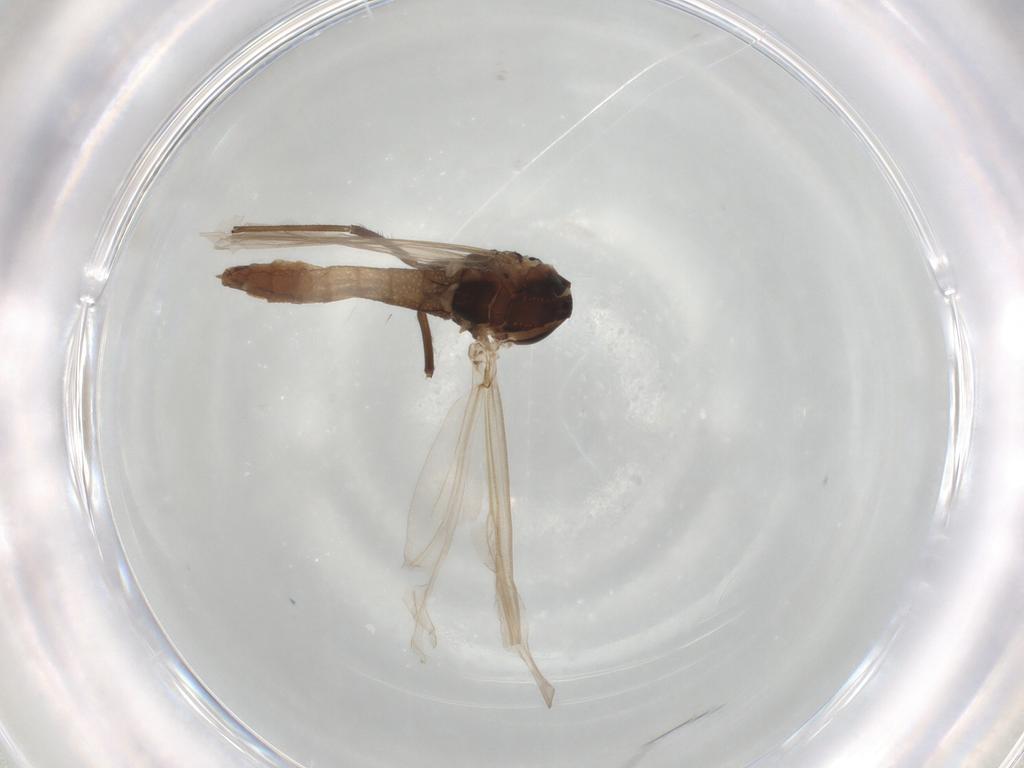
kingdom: Animalia
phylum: Arthropoda
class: Insecta
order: Diptera
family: Chironomidae
